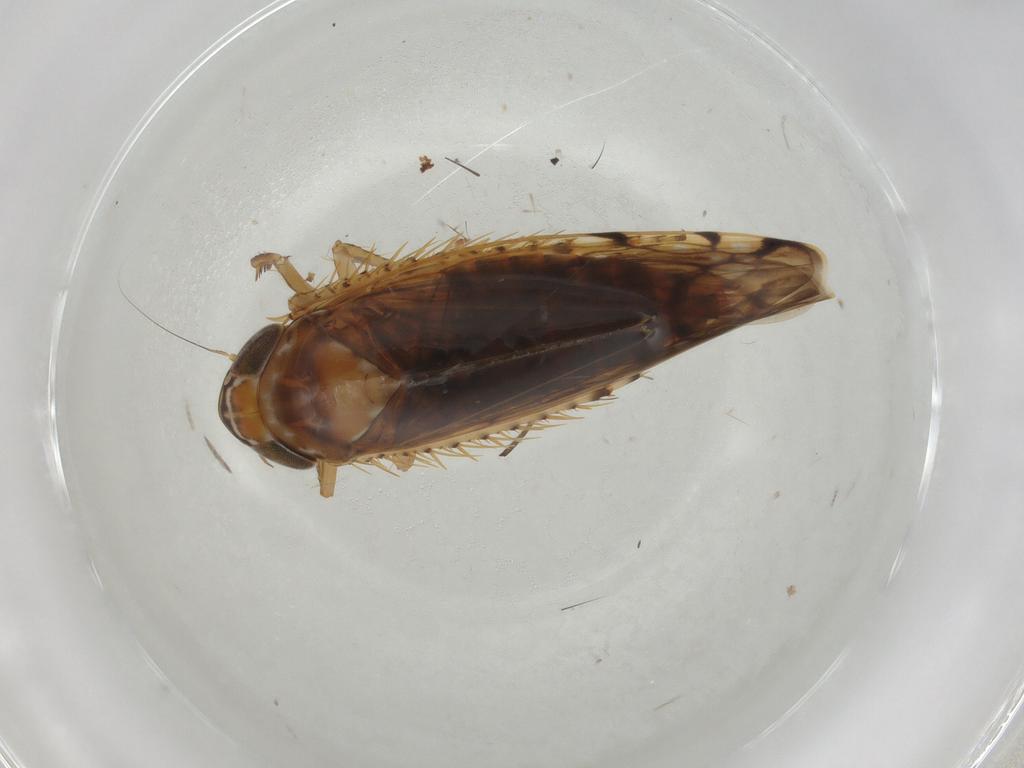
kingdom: Animalia
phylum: Arthropoda
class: Insecta
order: Hemiptera
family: Cicadellidae
